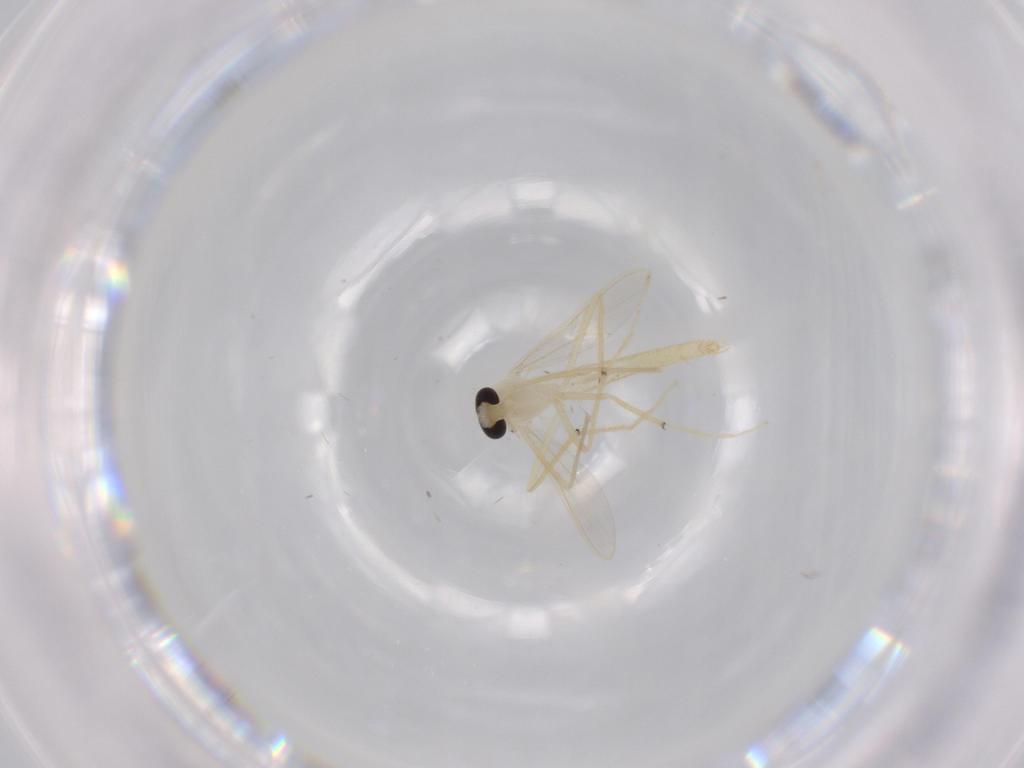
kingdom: Animalia
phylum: Arthropoda
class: Insecta
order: Diptera
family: Chironomidae
